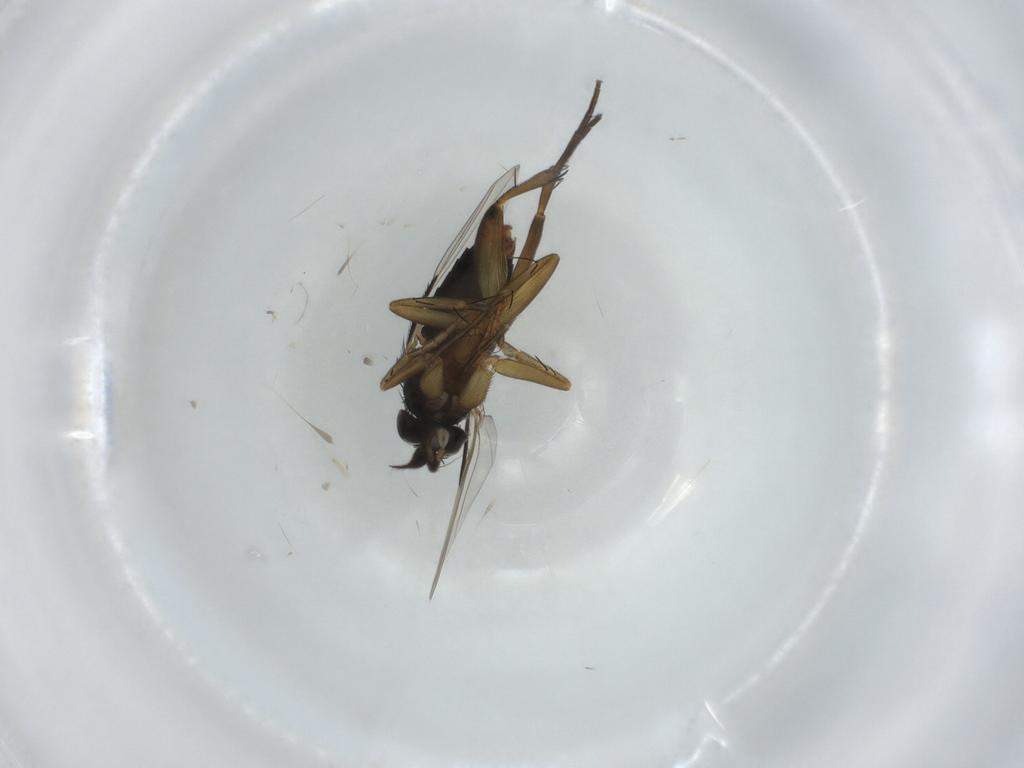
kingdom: Animalia
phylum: Arthropoda
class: Insecta
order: Diptera
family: Phoridae
